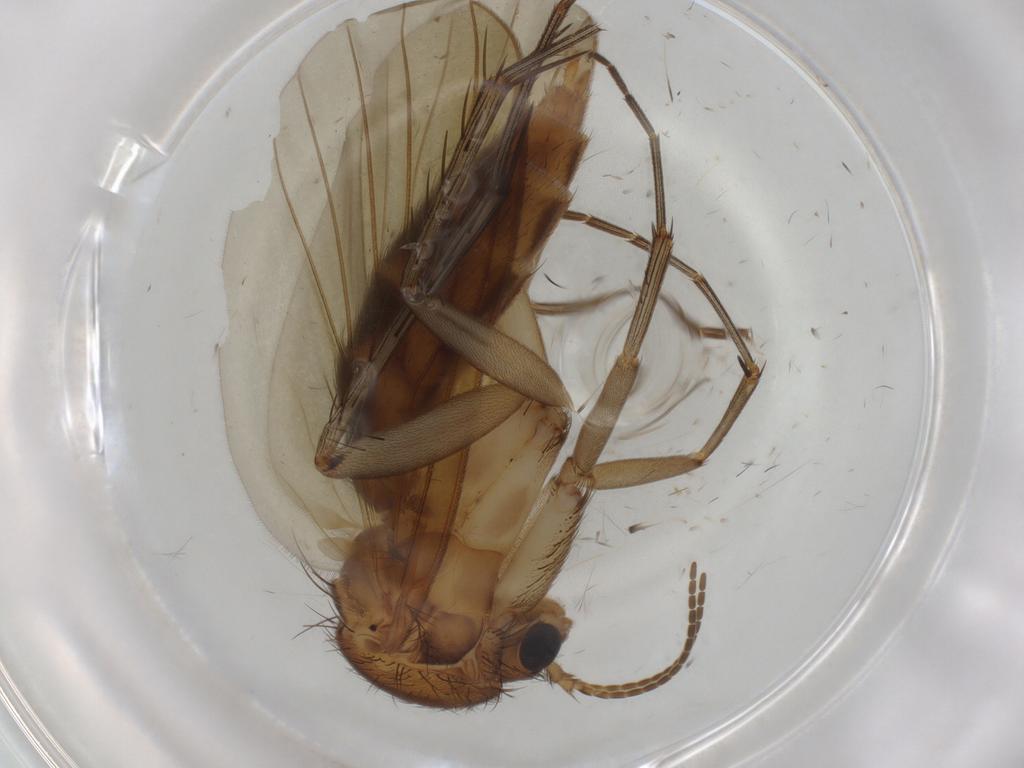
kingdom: Animalia
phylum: Arthropoda
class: Insecta
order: Diptera
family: Mycetophilidae
